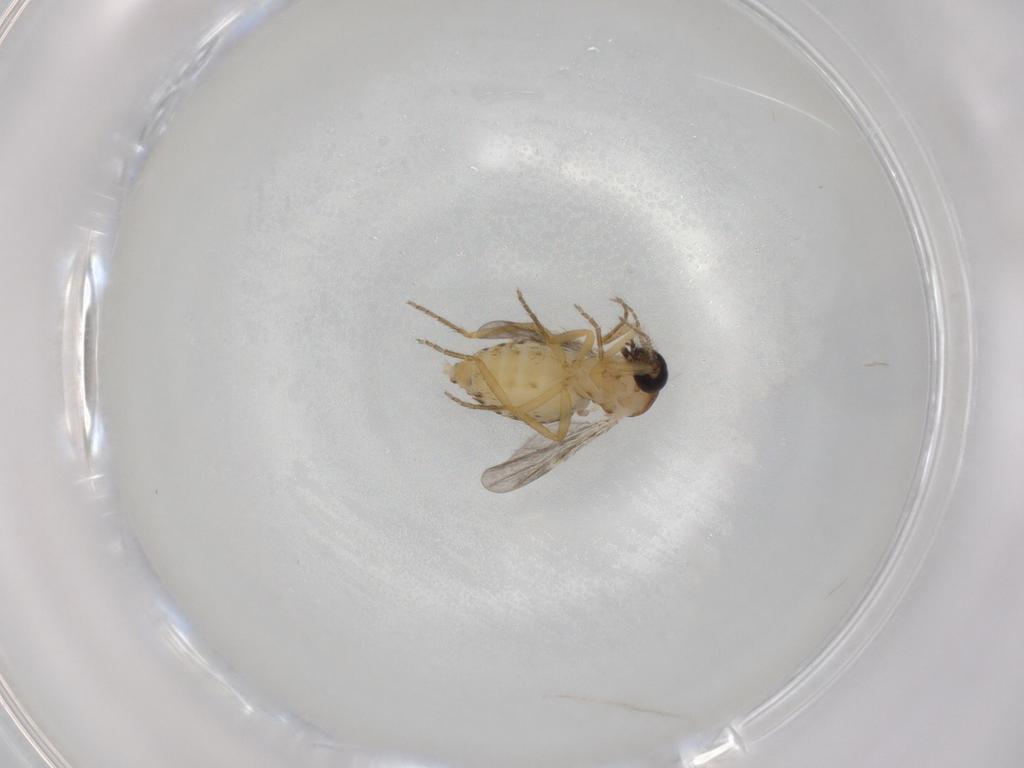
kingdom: Animalia
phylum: Arthropoda
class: Insecta
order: Diptera
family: Ceratopogonidae
